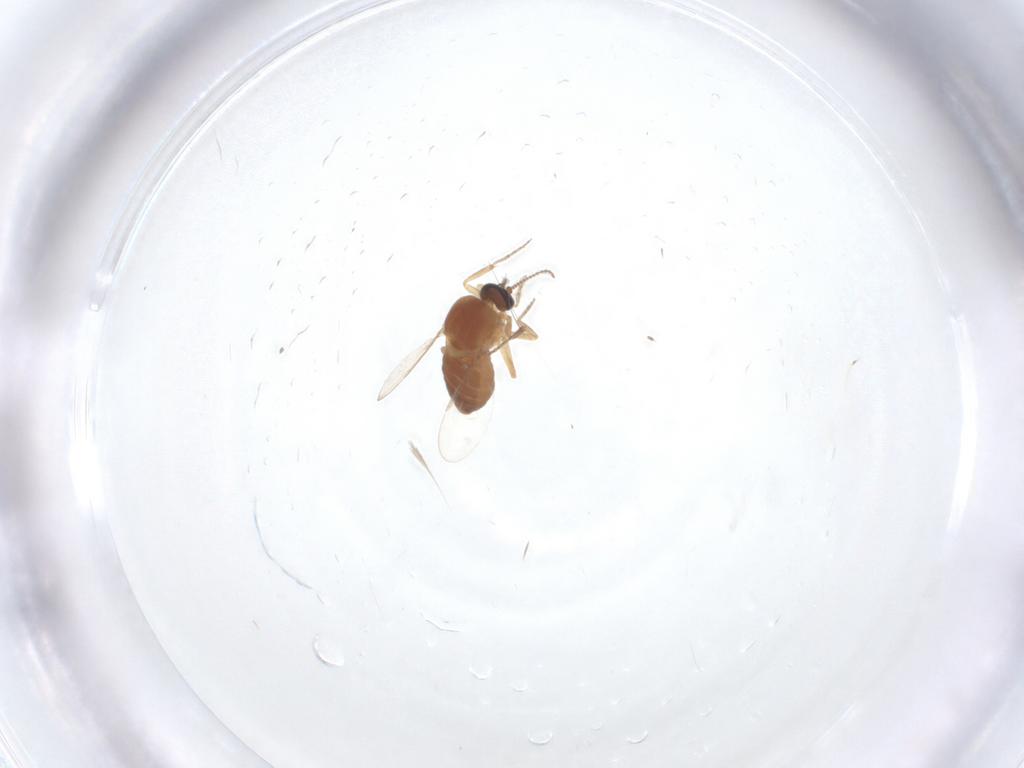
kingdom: Animalia
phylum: Arthropoda
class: Insecta
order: Diptera
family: Ceratopogonidae
